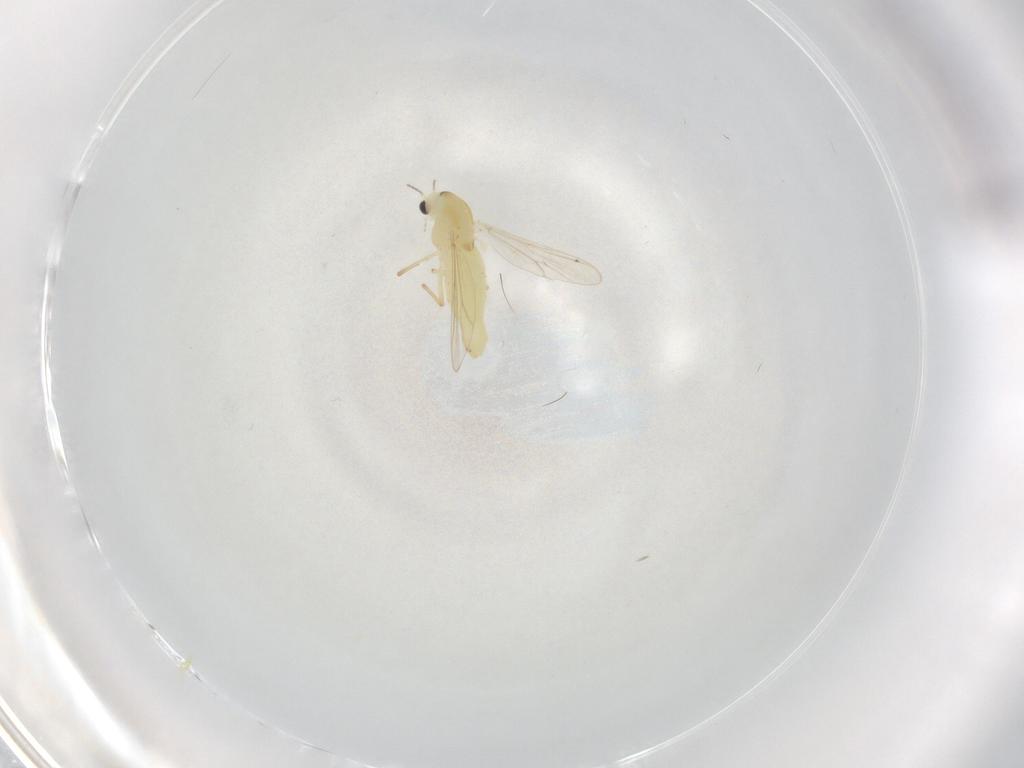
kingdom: Animalia
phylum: Arthropoda
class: Insecta
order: Diptera
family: Chironomidae
